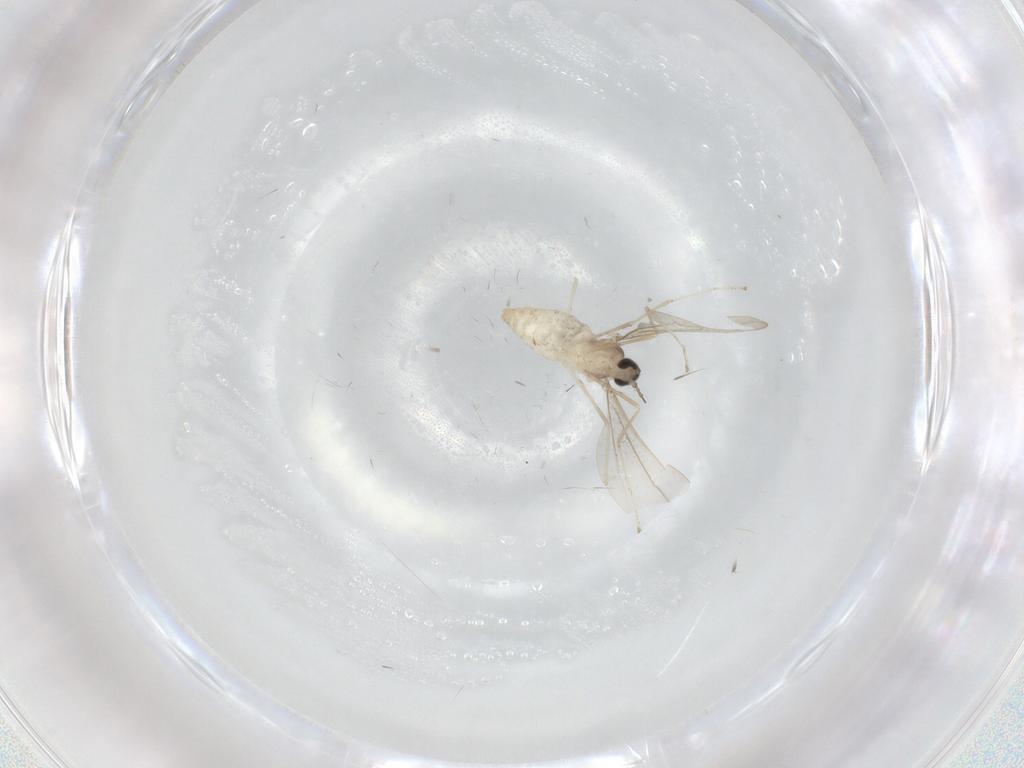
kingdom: Animalia
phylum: Arthropoda
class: Insecta
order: Diptera
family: Cecidomyiidae
